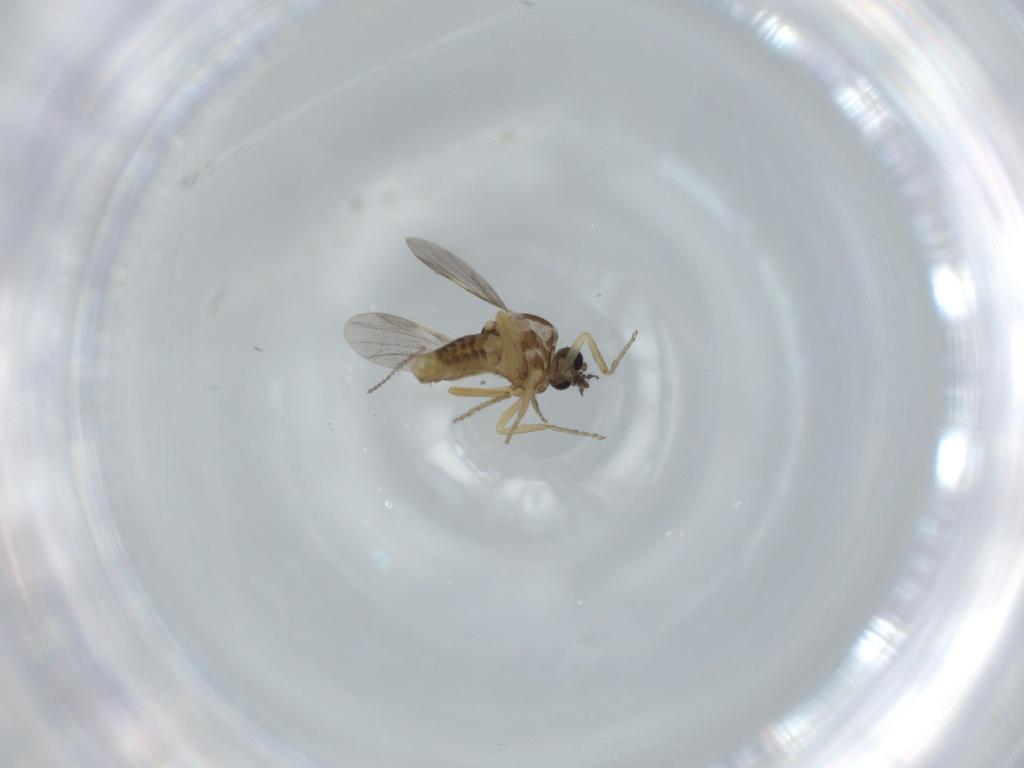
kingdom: Animalia
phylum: Arthropoda
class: Insecta
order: Diptera
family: Ceratopogonidae
